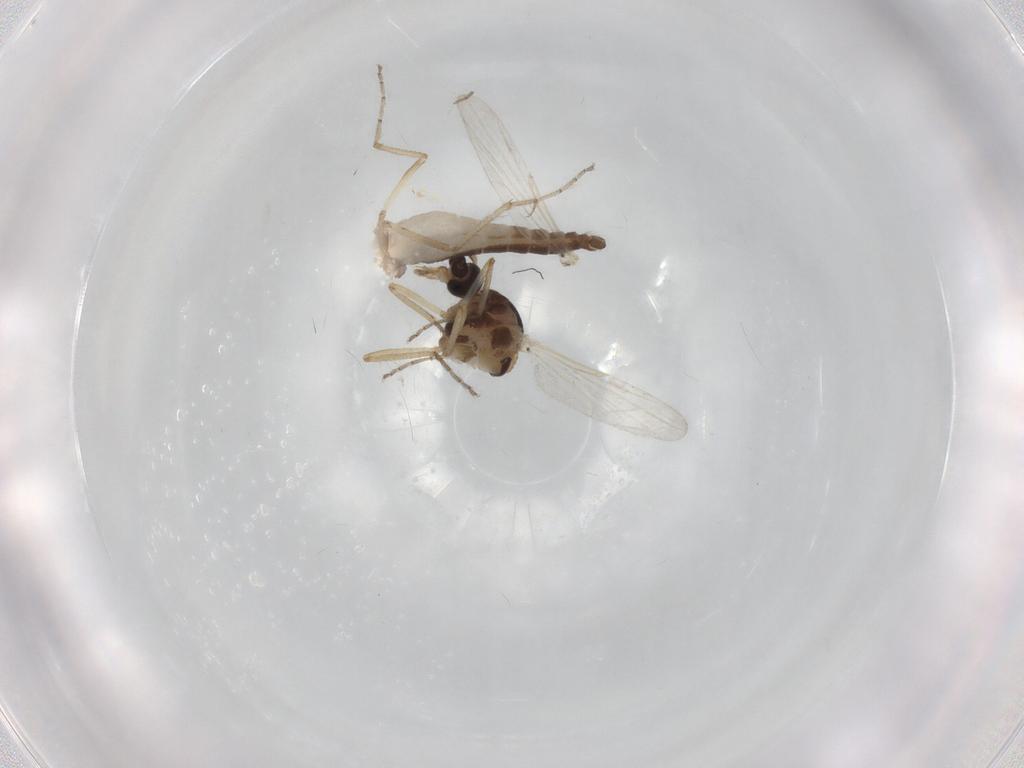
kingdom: Animalia
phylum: Arthropoda
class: Insecta
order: Diptera
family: Ceratopogonidae
